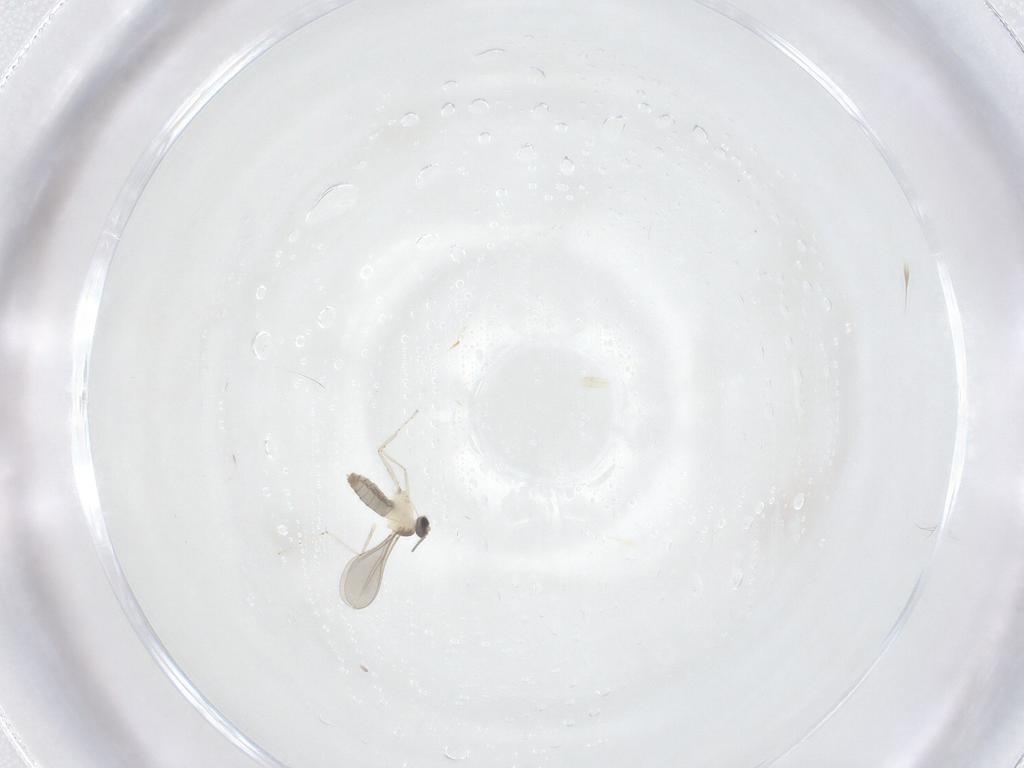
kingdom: Animalia
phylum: Arthropoda
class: Insecta
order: Diptera
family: Cecidomyiidae
